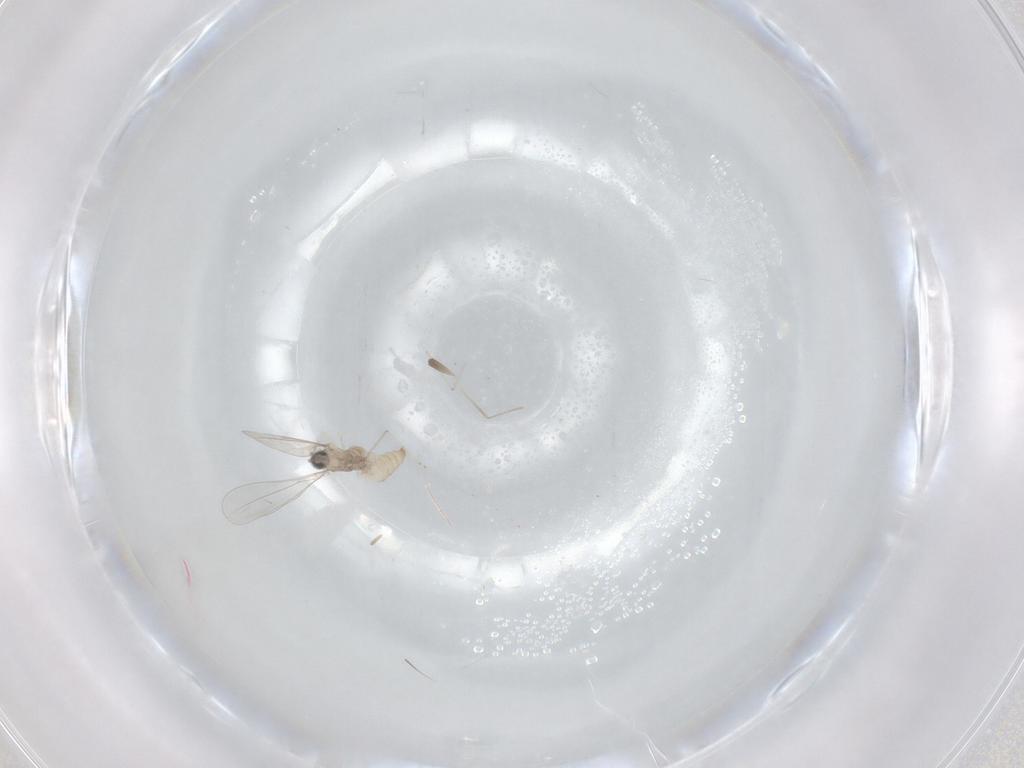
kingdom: Animalia
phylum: Arthropoda
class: Insecta
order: Diptera
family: Cecidomyiidae
